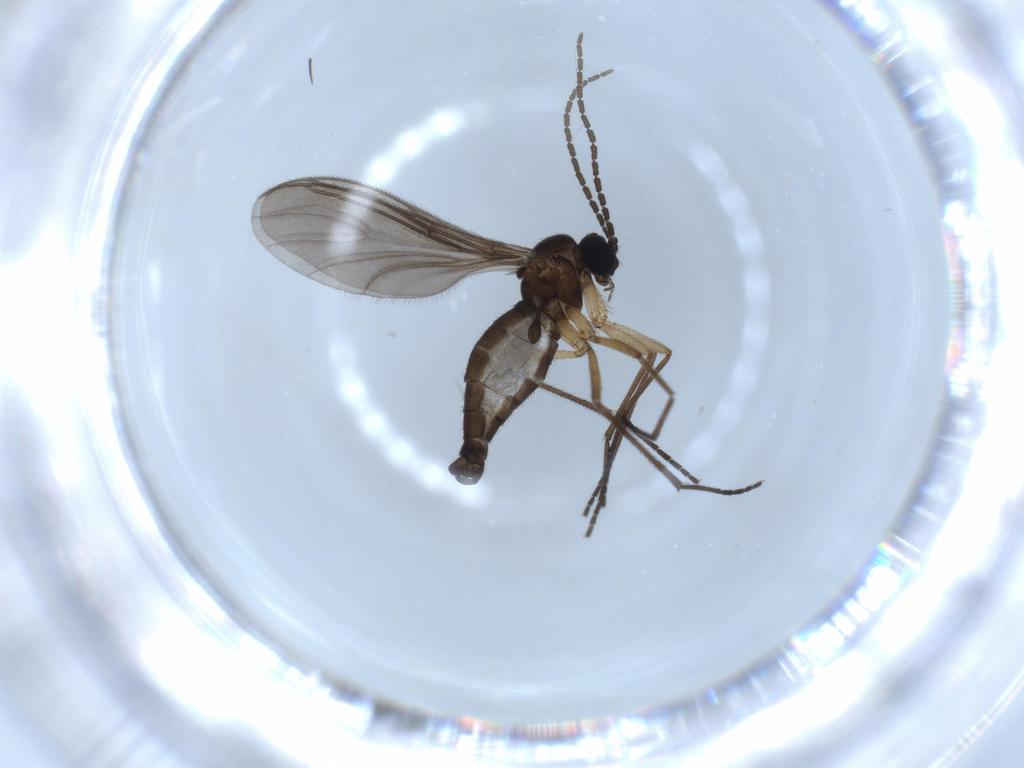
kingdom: Animalia
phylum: Arthropoda
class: Insecta
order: Diptera
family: Sciaridae
